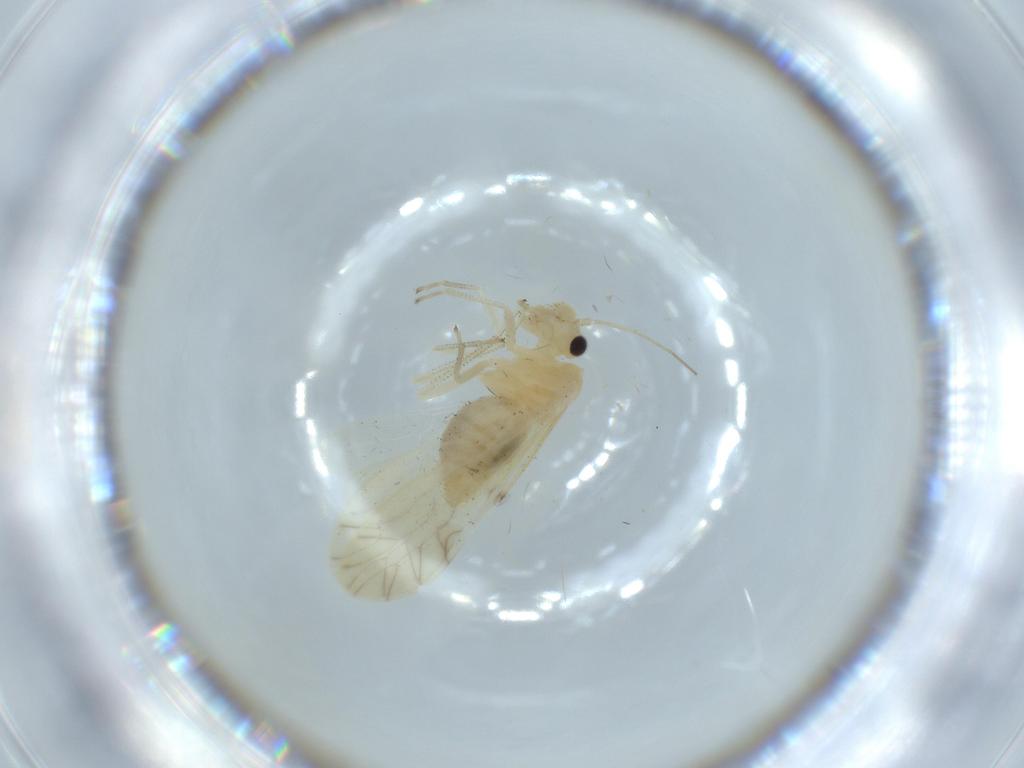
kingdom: Animalia
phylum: Arthropoda
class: Insecta
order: Psocodea
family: Caeciliusidae
